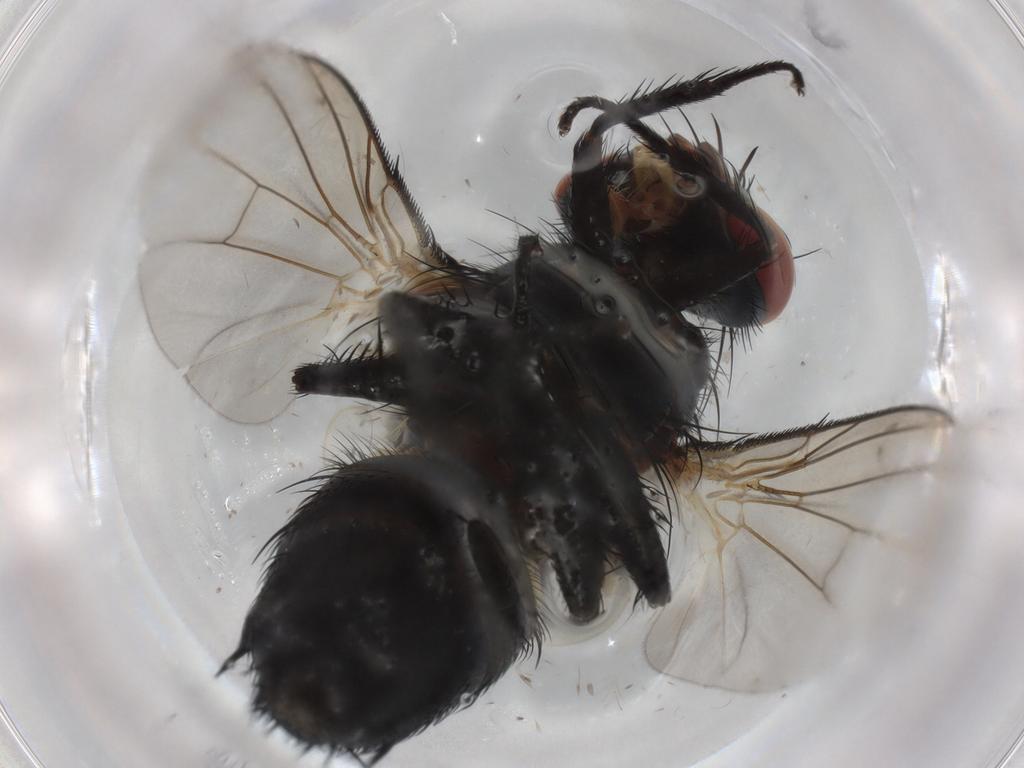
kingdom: Animalia
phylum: Arthropoda
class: Insecta
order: Diptera
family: Tachinidae
